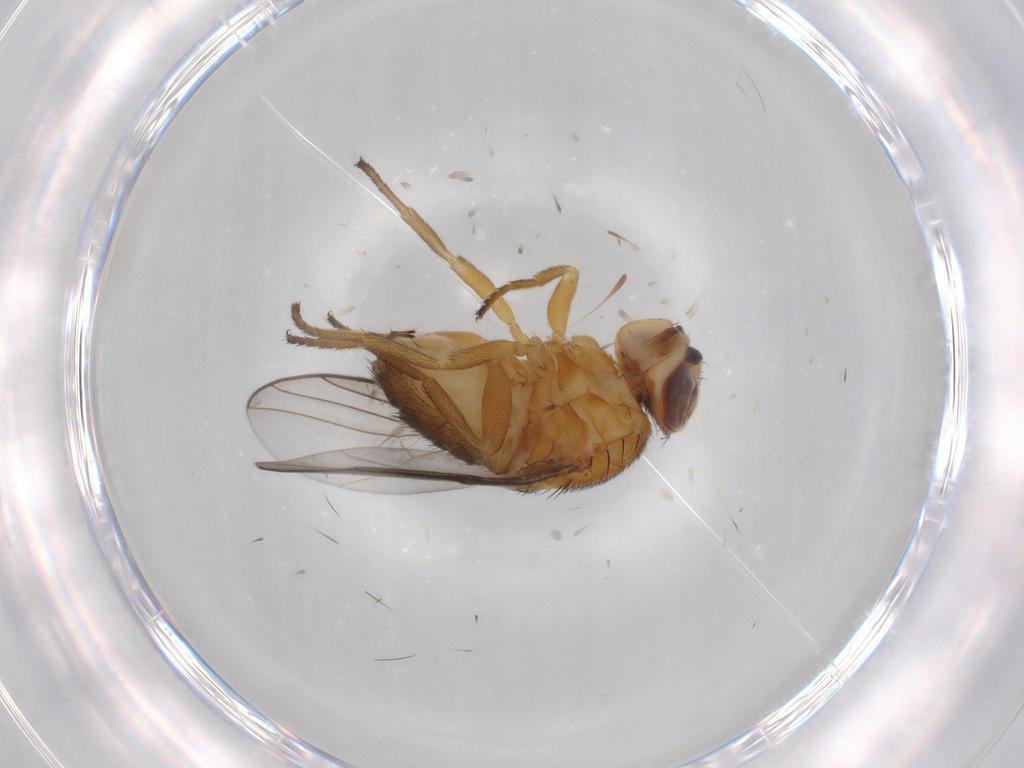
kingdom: Animalia
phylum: Arthropoda
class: Insecta
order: Diptera
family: Chloropidae
